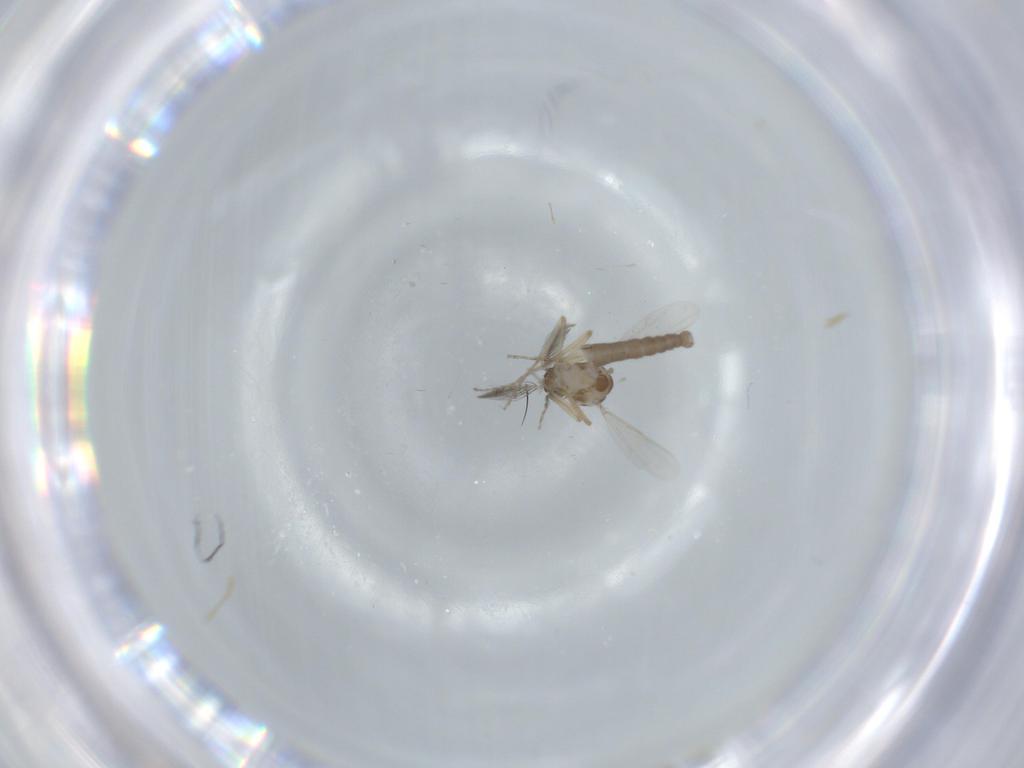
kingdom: Animalia
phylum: Arthropoda
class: Insecta
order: Diptera
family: Ceratopogonidae
